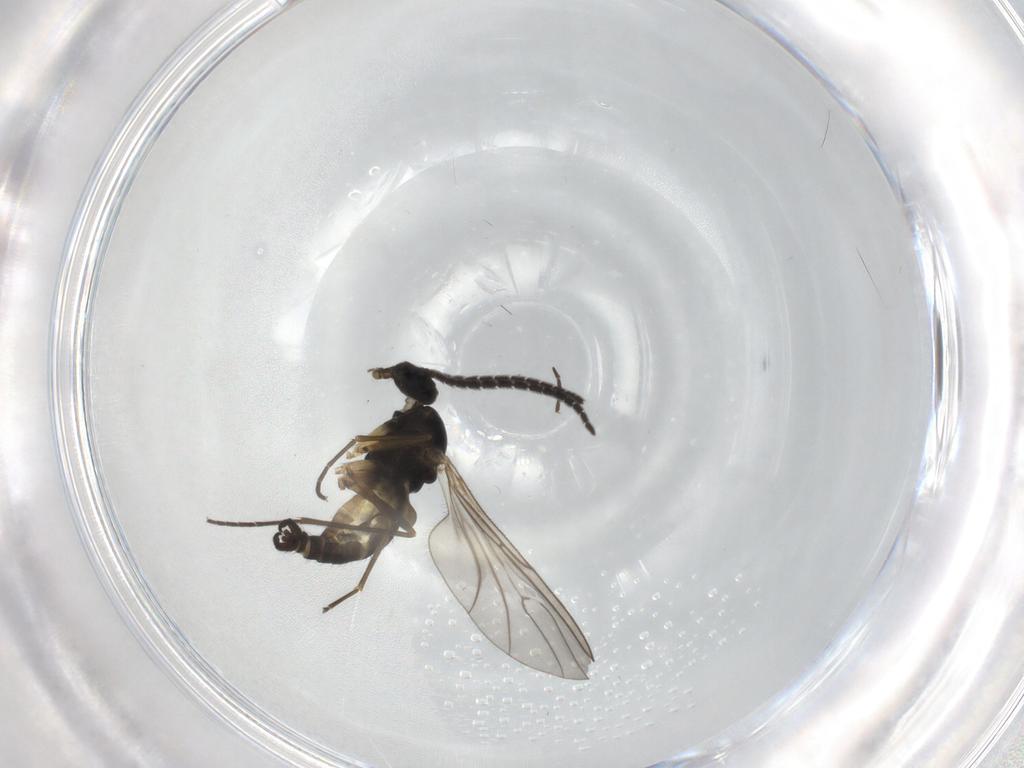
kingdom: Animalia
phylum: Arthropoda
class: Insecta
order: Diptera
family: Sciaridae
